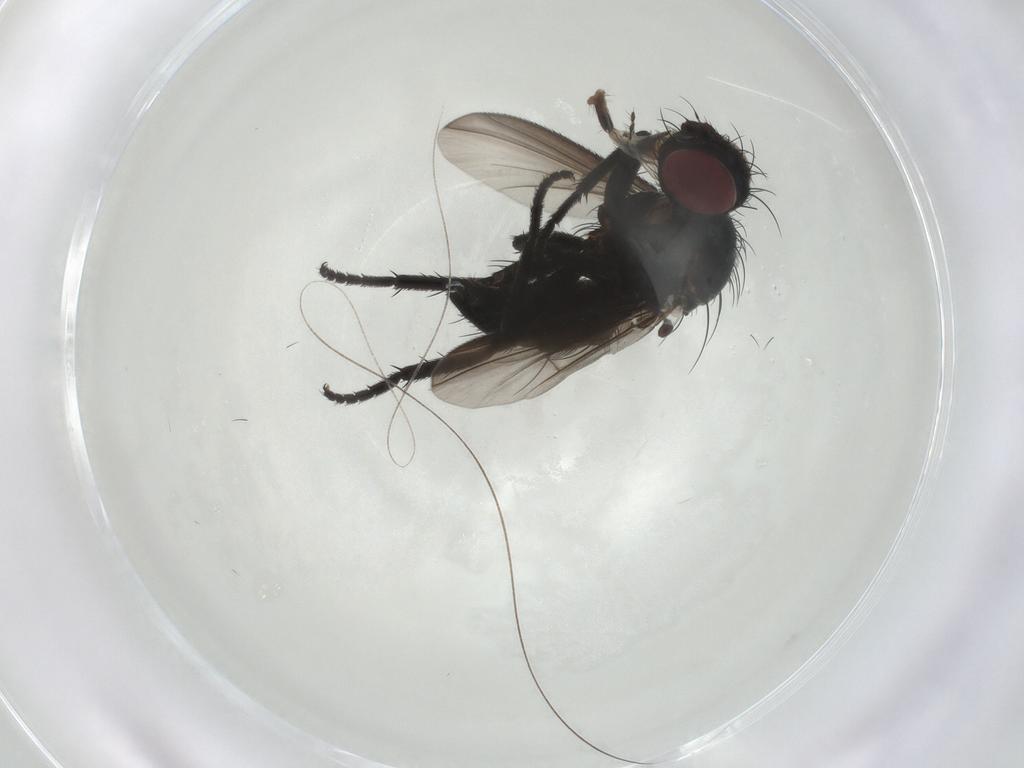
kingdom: Animalia
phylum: Arthropoda
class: Insecta
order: Diptera
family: Tachinidae
